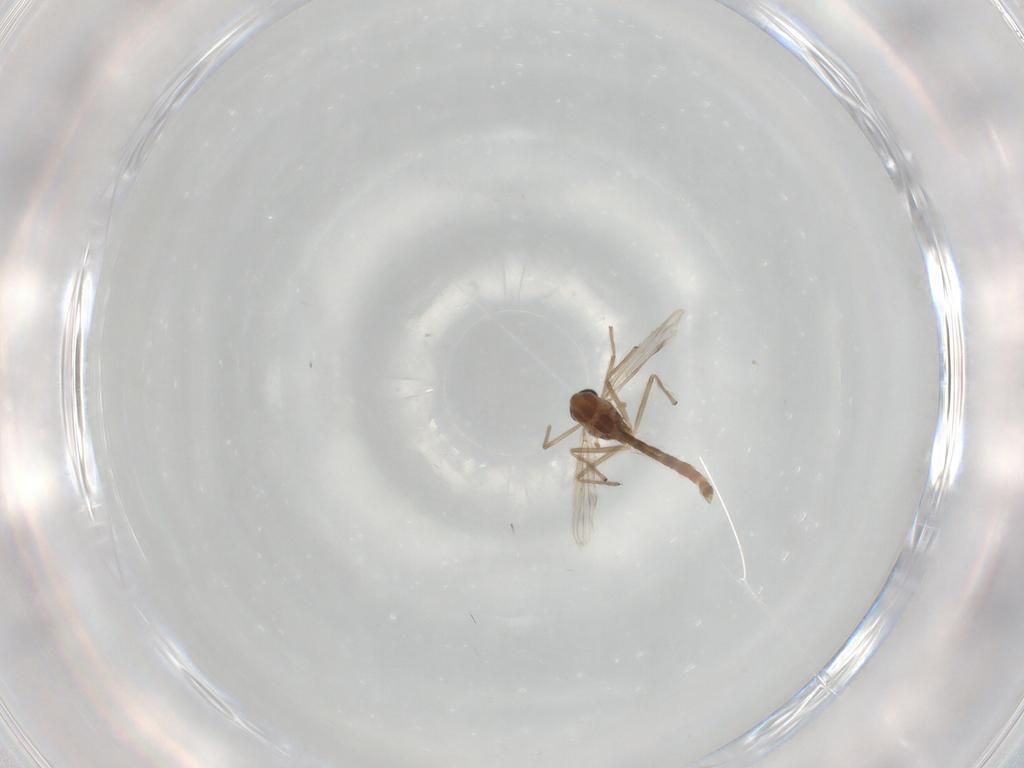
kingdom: Animalia
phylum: Arthropoda
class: Insecta
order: Diptera
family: Chironomidae
